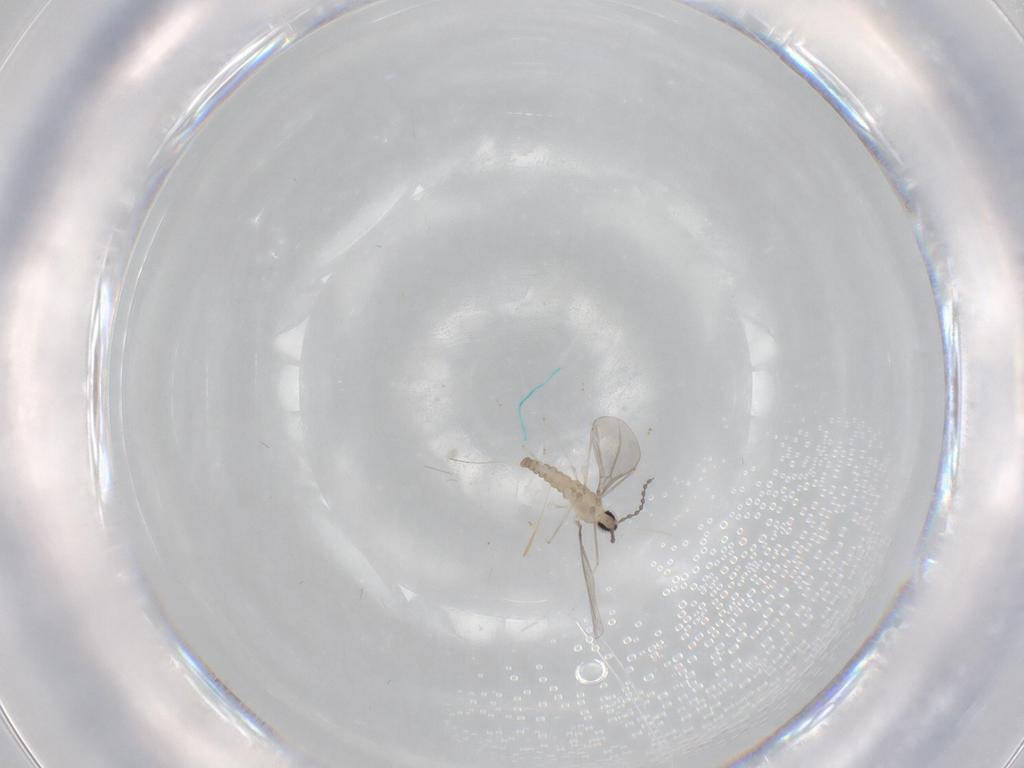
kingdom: Animalia
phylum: Arthropoda
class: Insecta
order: Diptera
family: Cecidomyiidae
